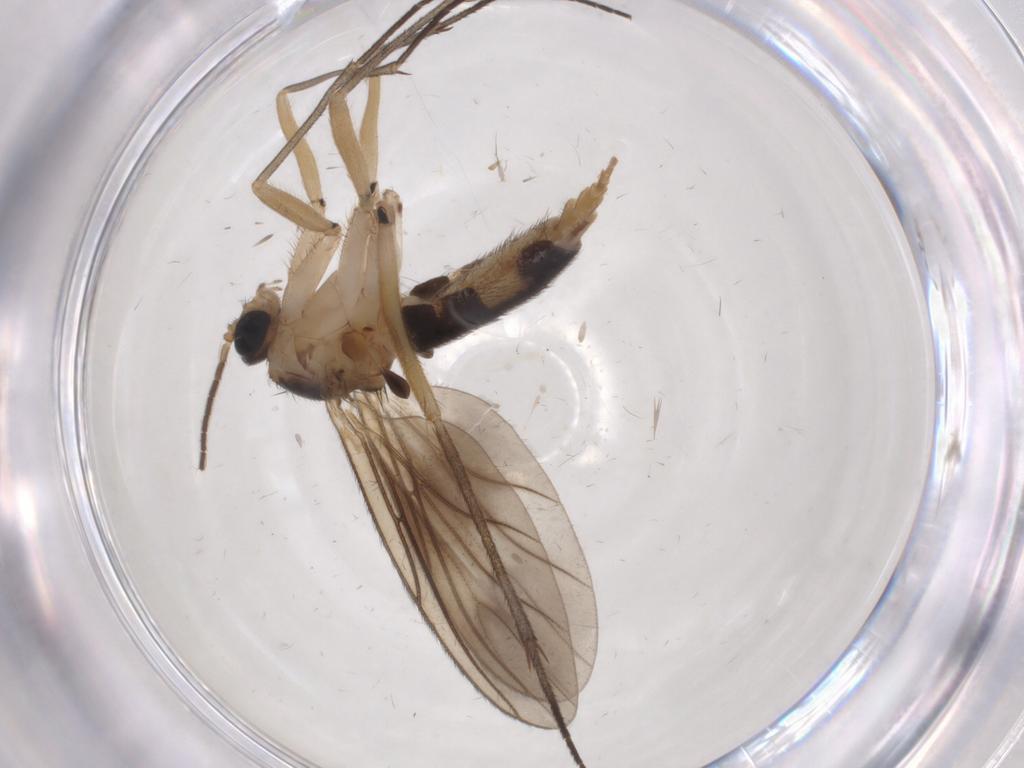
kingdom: Animalia
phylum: Arthropoda
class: Insecta
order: Diptera
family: Sciaridae
